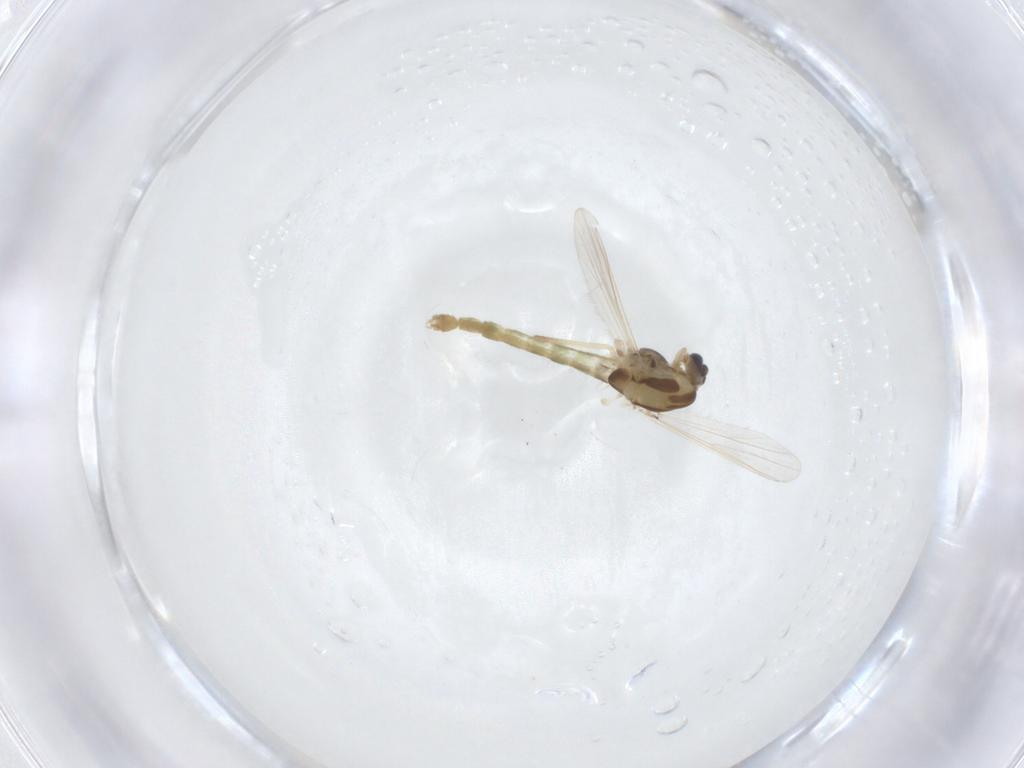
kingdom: Animalia
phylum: Arthropoda
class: Insecta
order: Diptera
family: Chironomidae
